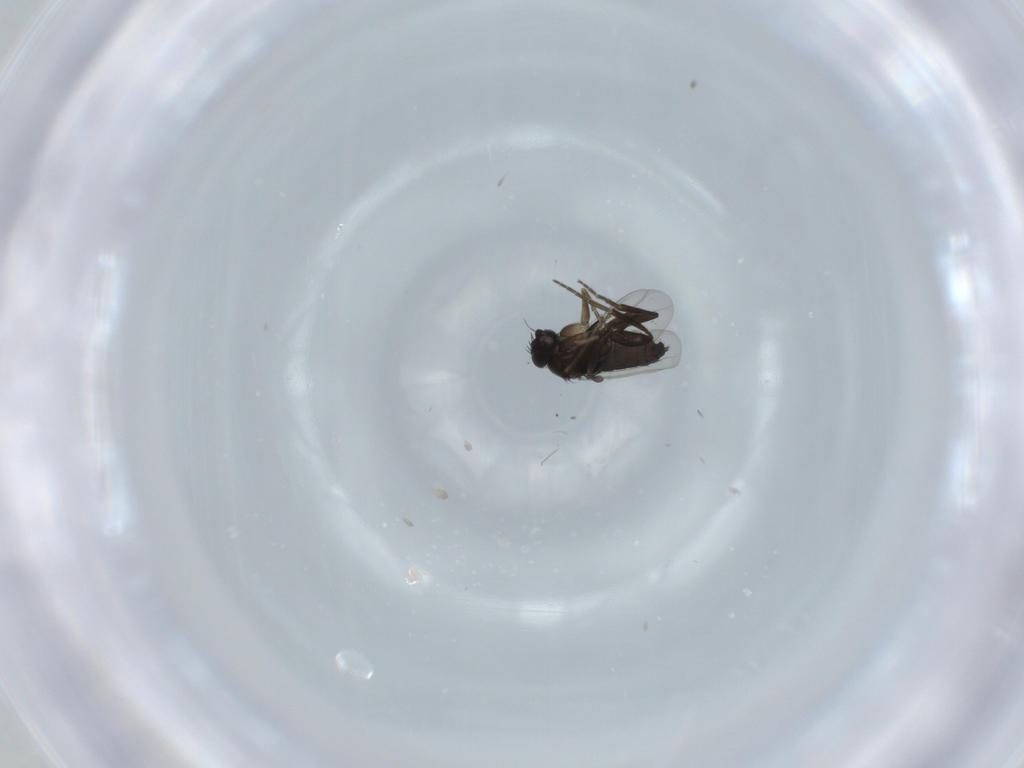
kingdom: Animalia
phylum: Arthropoda
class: Insecta
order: Diptera
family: Phoridae
